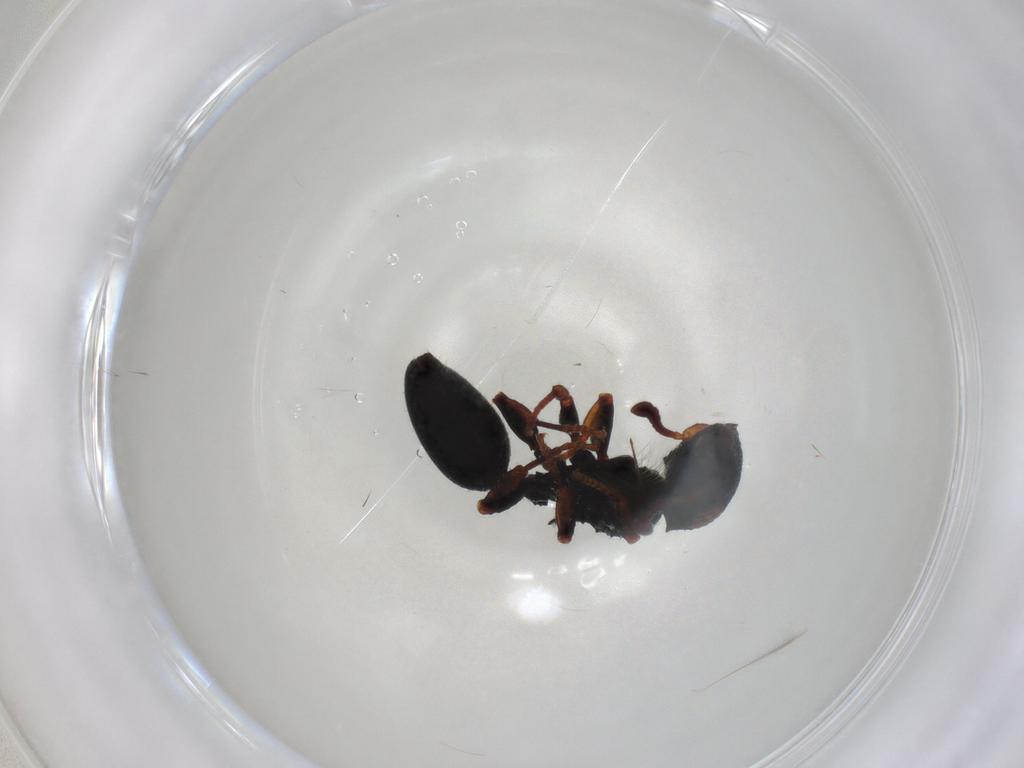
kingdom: Animalia
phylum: Arthropoda
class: Insecta
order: Hymenoptera
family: Formicidae
